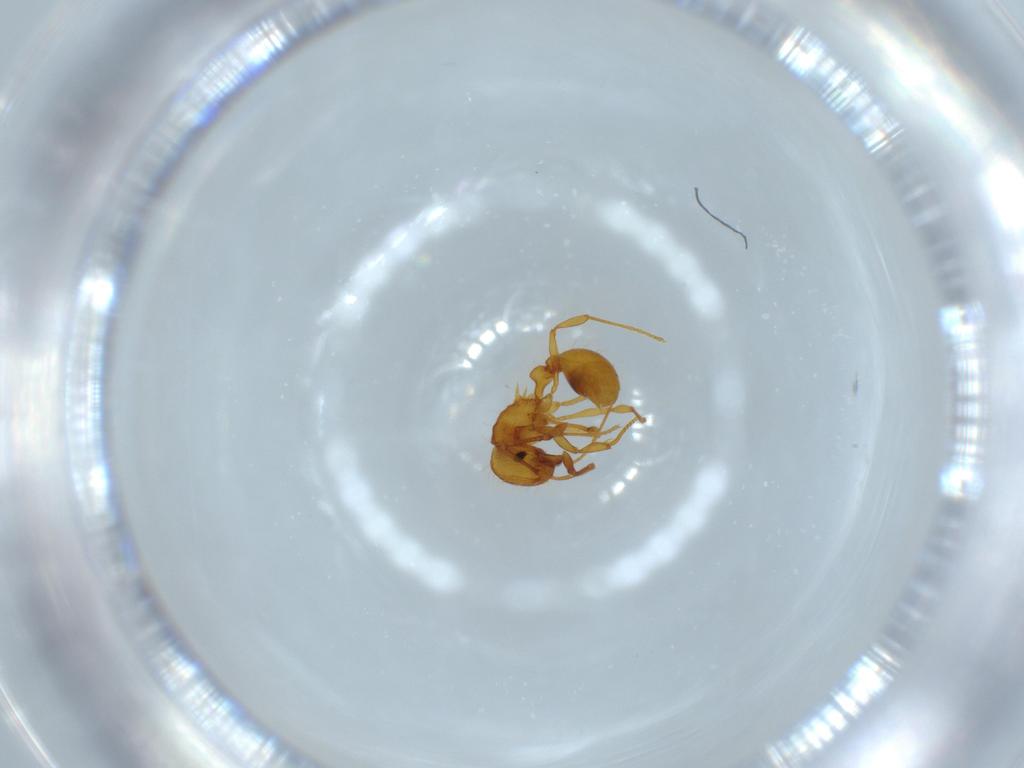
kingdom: Animalia
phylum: Arthropoda
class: Insecta
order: Hymenoptera
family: Formicidae
